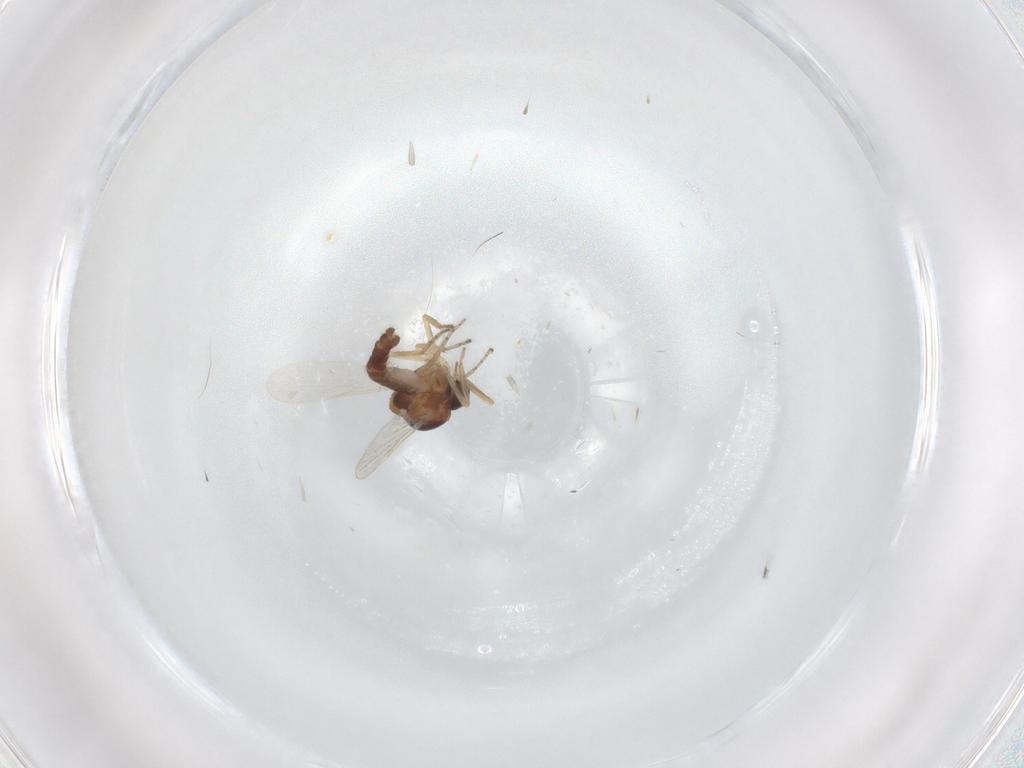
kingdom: Animalia
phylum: Arthropoda
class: Insecta
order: Diptera
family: Ceratopogonidae
